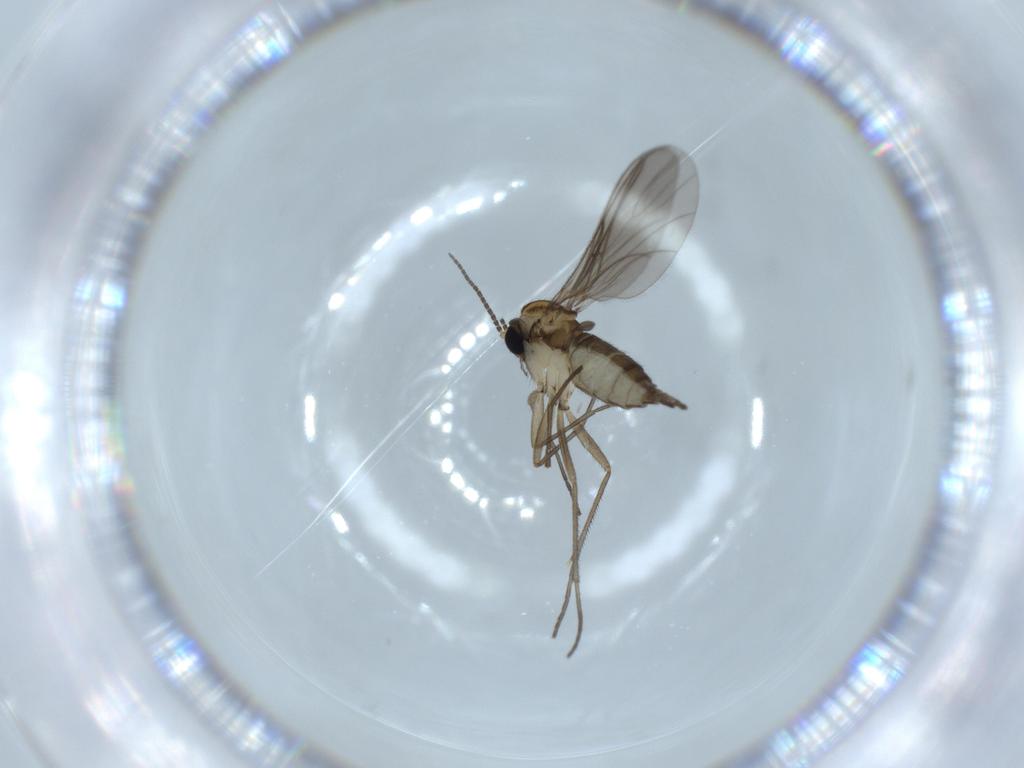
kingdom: Animalia
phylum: Arthropoda
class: Insecta
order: Diptera
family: Sciaridae
